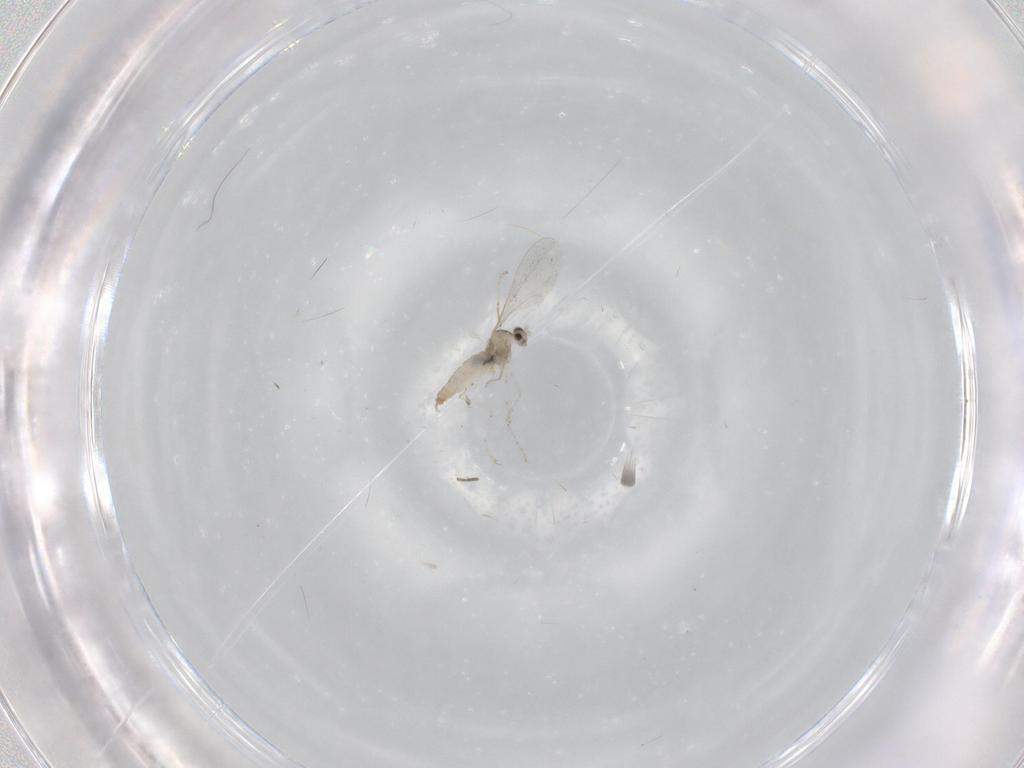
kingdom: Animalia
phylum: Arthropoda
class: Insecta
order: Diptera
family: Cecidomyiidae
